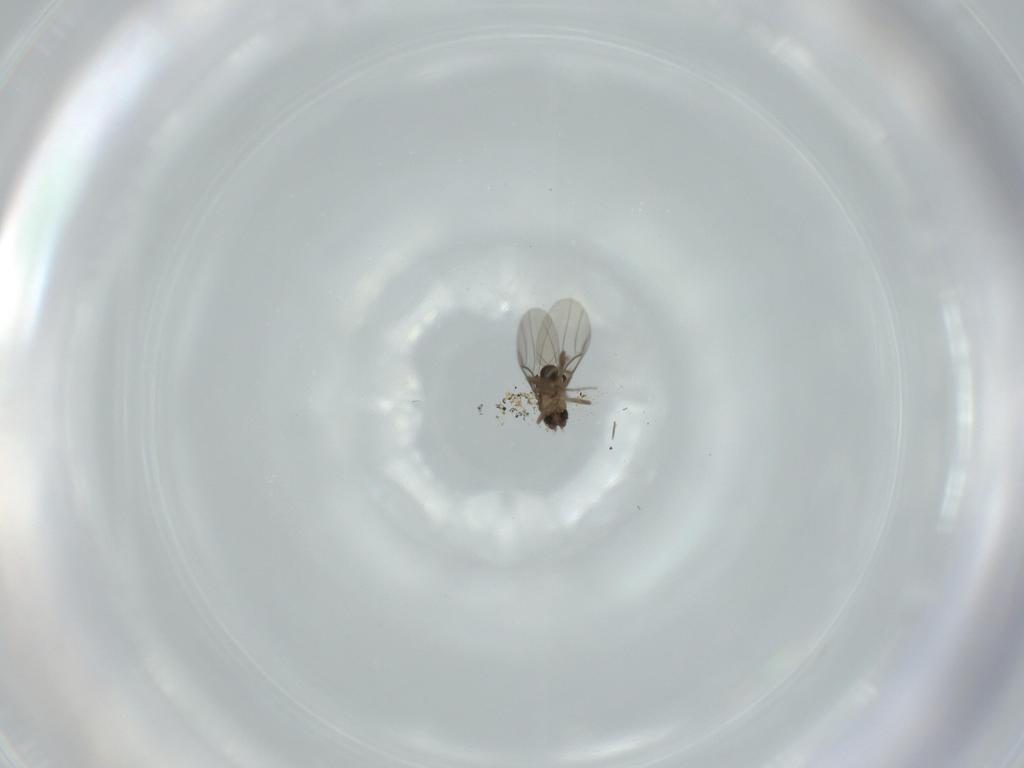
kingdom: Animalia
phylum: Arthropoda
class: Insecta
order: Diptera
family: Phoridae
